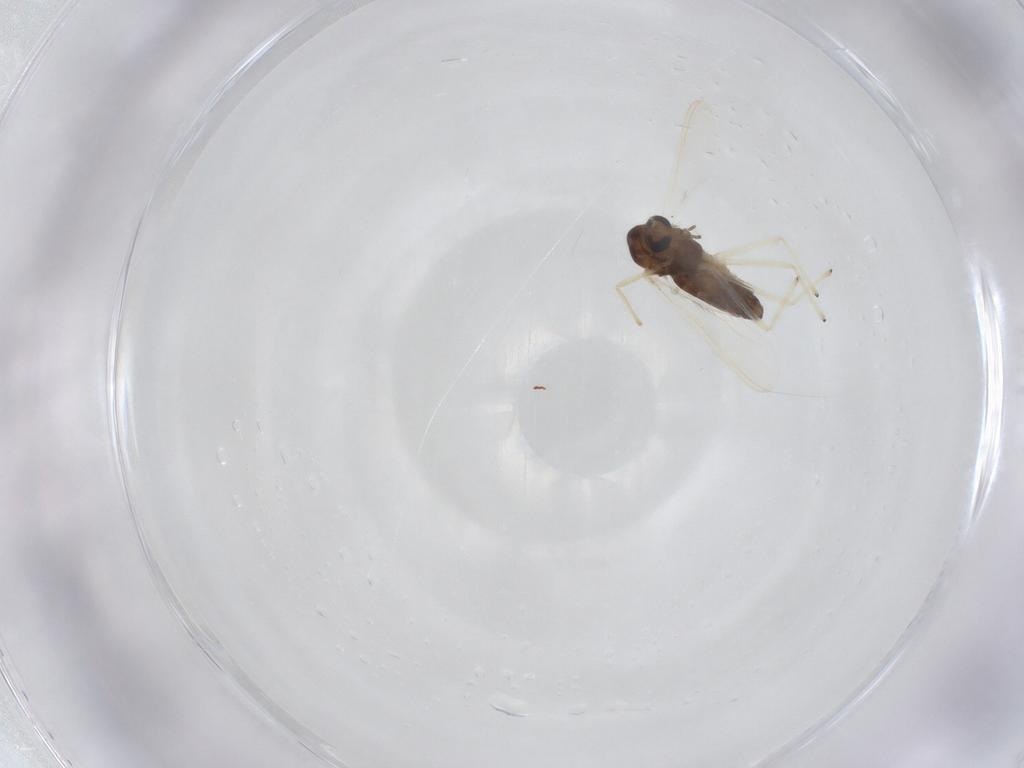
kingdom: Animalia
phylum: Arthropoda
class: Insecta
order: Diptera
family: Chironomidae
